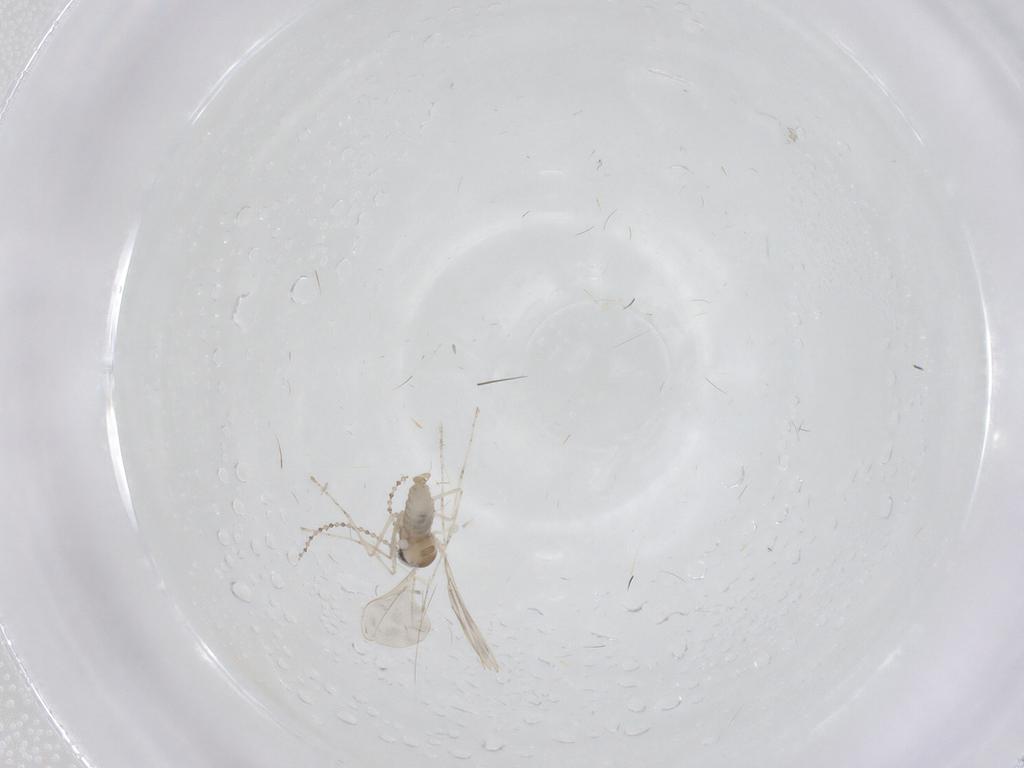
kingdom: Animalia
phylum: Arthropoda
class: Insecta
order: Diptera
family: Cecidomyiidae
